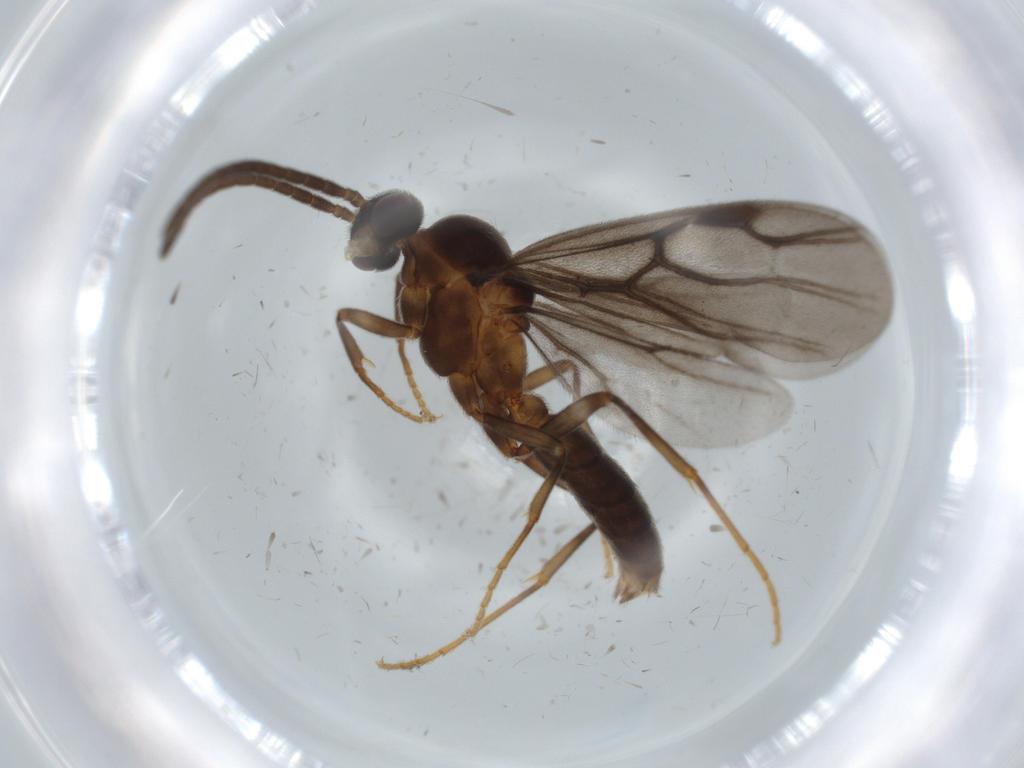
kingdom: Animalia
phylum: Arthropoda
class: Insecta
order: Hymenoptera
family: Formicidae
